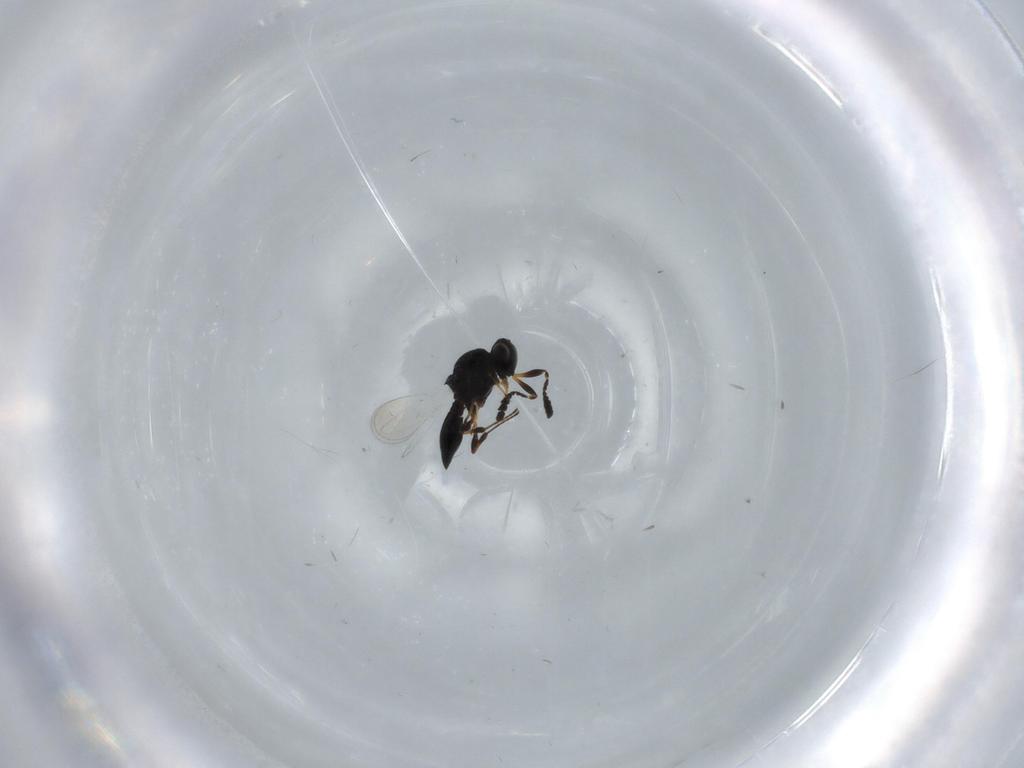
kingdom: Animalia
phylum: Arthropoda
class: Insecta
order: Hymenoptera
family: Platygastridae
